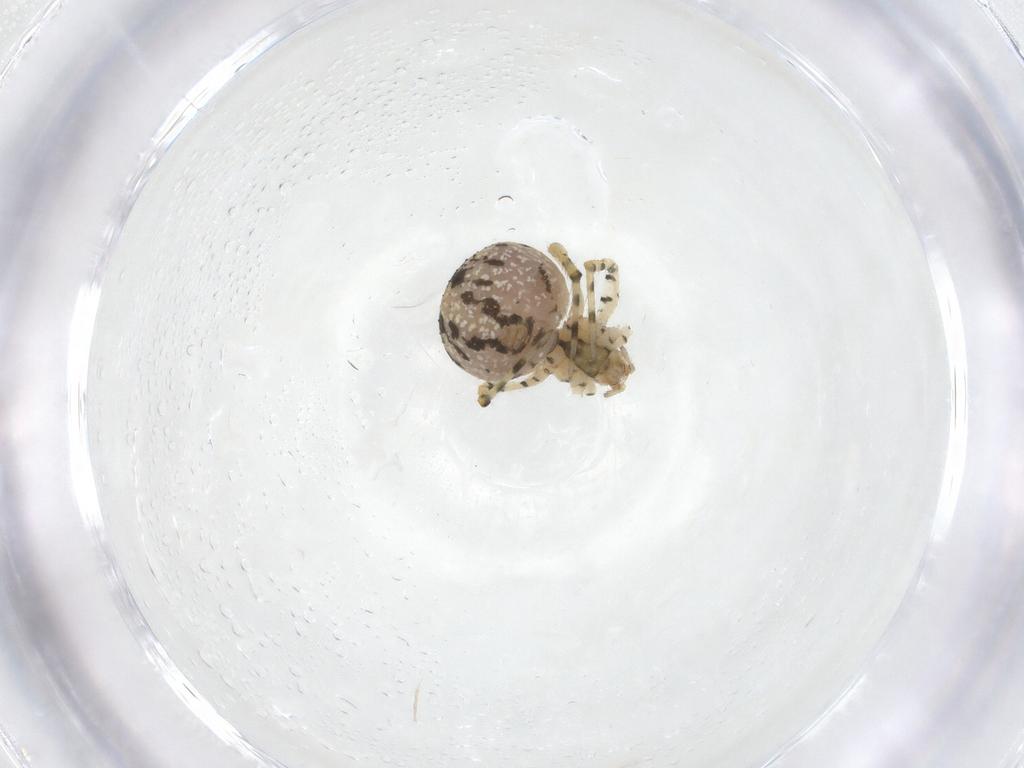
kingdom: Animalia
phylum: Arthropoda
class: Arachnida
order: Araneae
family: Theridiidae
